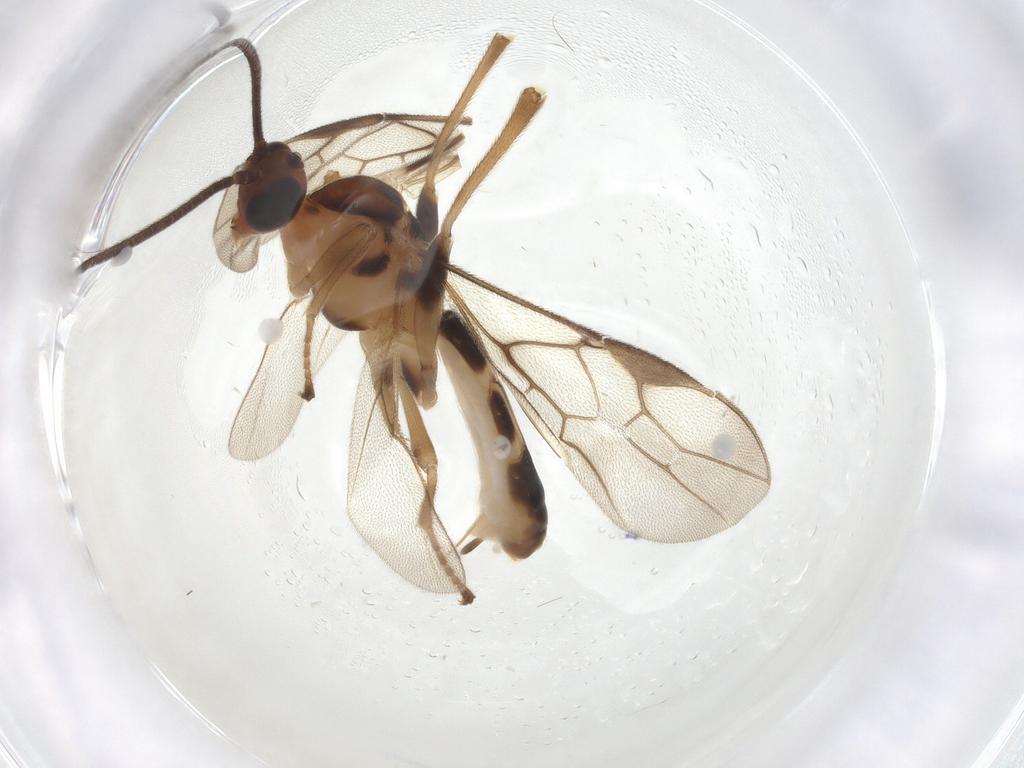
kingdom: Animalia
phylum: Arthropoda
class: Insecta
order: Hymenoptera
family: Braconidae
